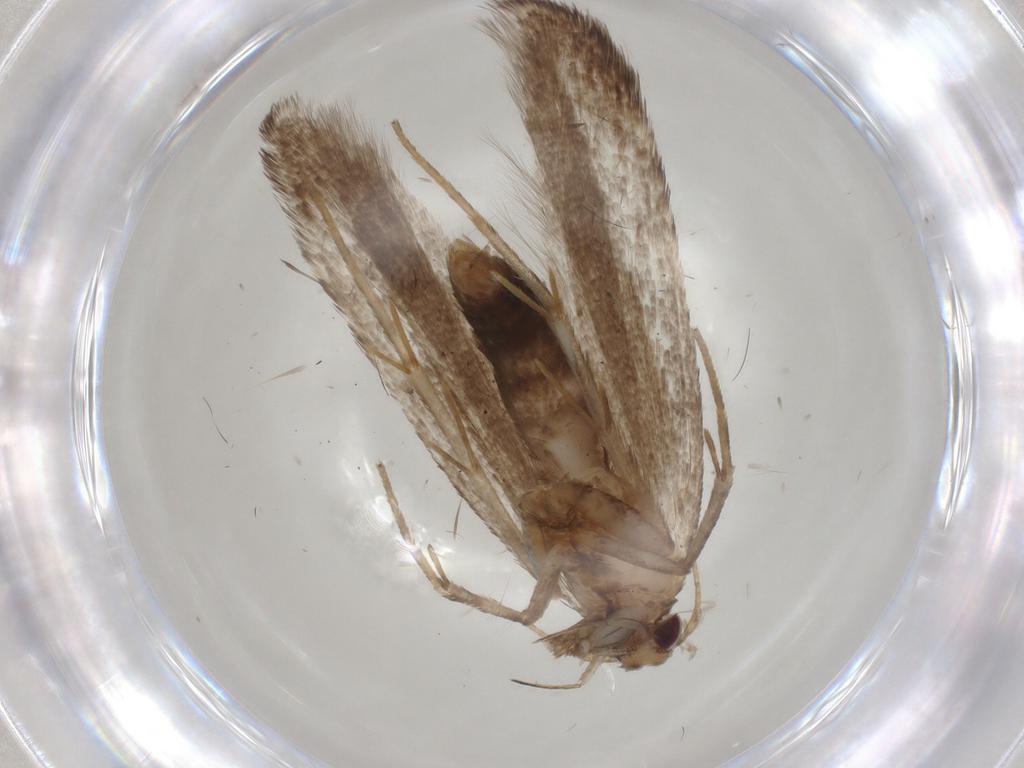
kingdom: Animalia
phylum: Arthropoda
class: Insecta
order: Lepidoptera
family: Gelechiidae
